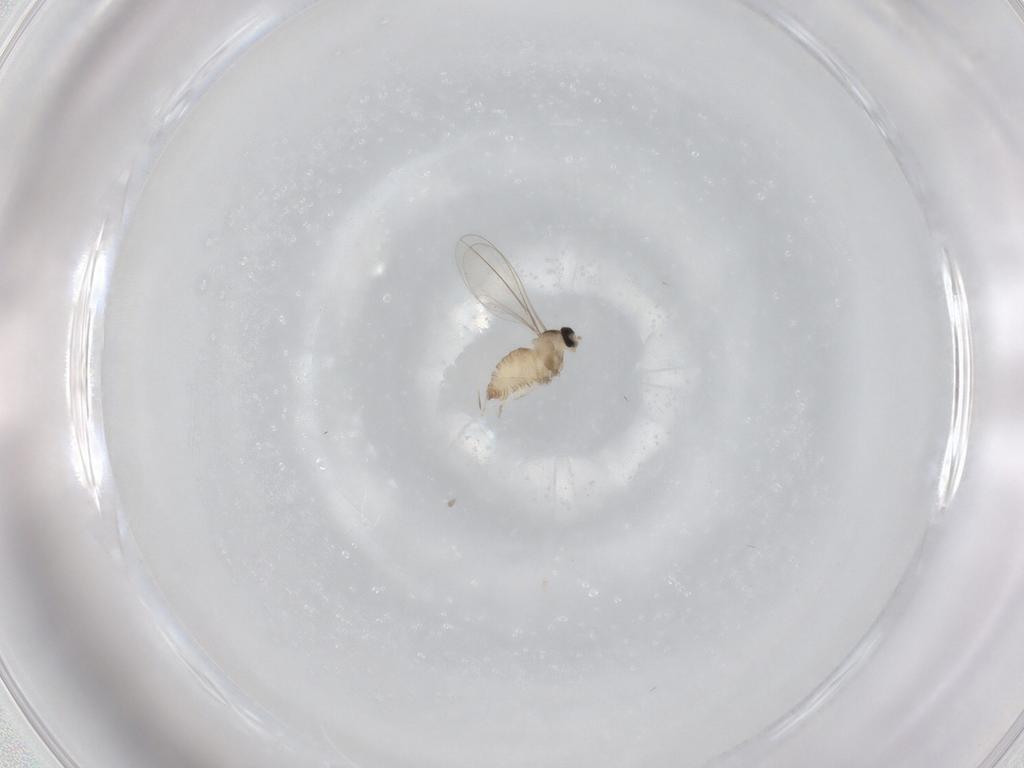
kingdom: Animalia
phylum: Arthropoda
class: Insecta
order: Diptera
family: Cecidomyiidae
